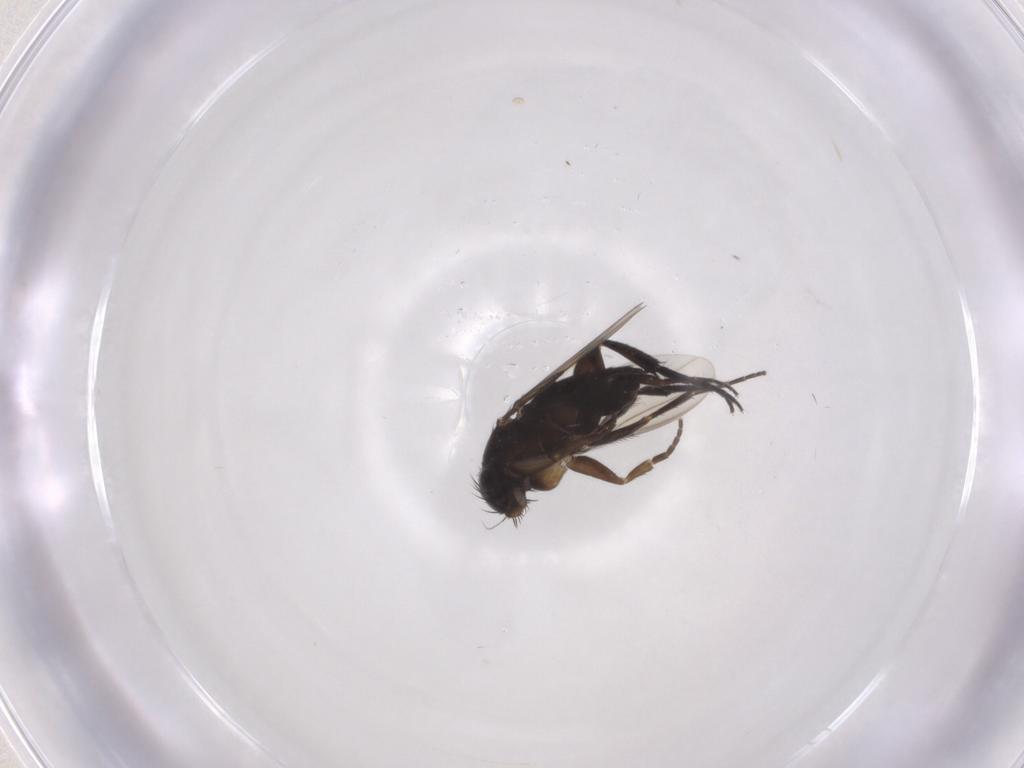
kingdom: Animalia
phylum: Arthropoda
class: Insecta
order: Diptera
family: Phoridae
